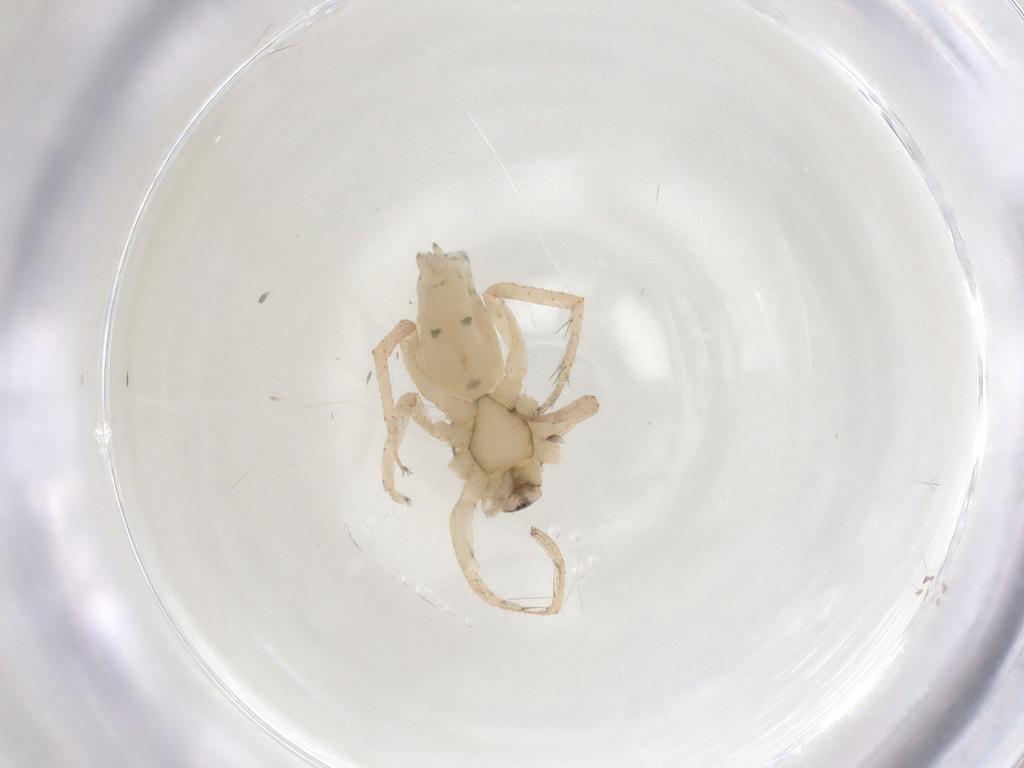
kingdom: Animalia
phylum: Arthropoda
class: Arachnida
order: Araneae
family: Anyphaenidae
